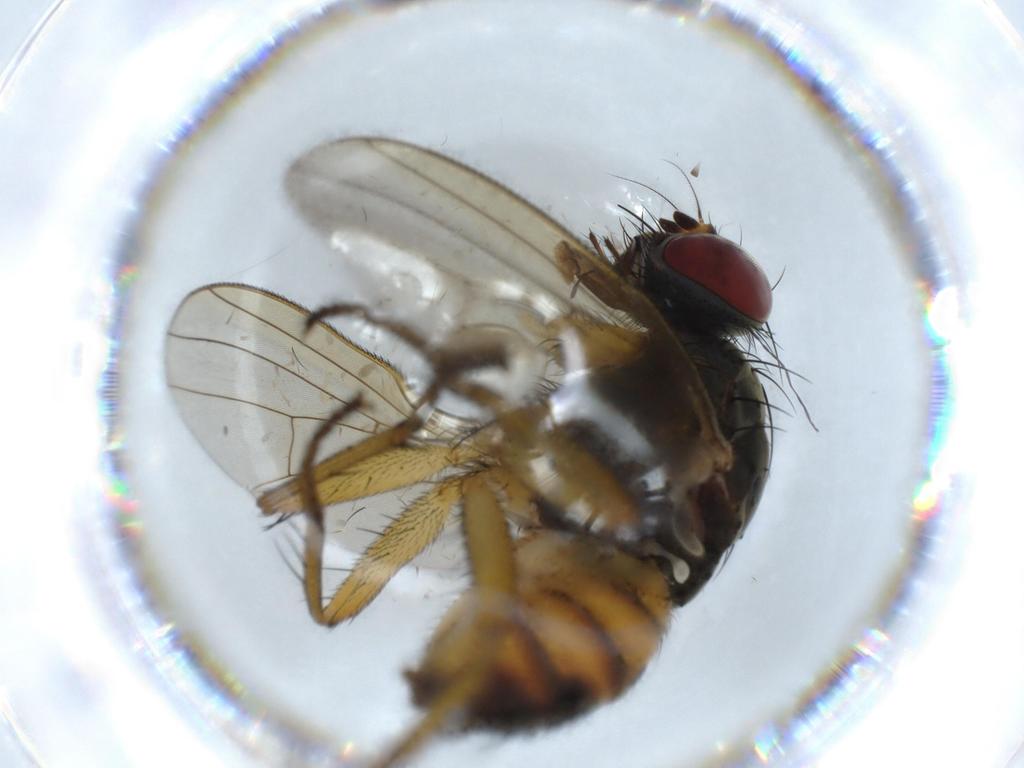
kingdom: Animalia
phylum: Arthropoda
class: Insecta
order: Diptera
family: Muscidae
